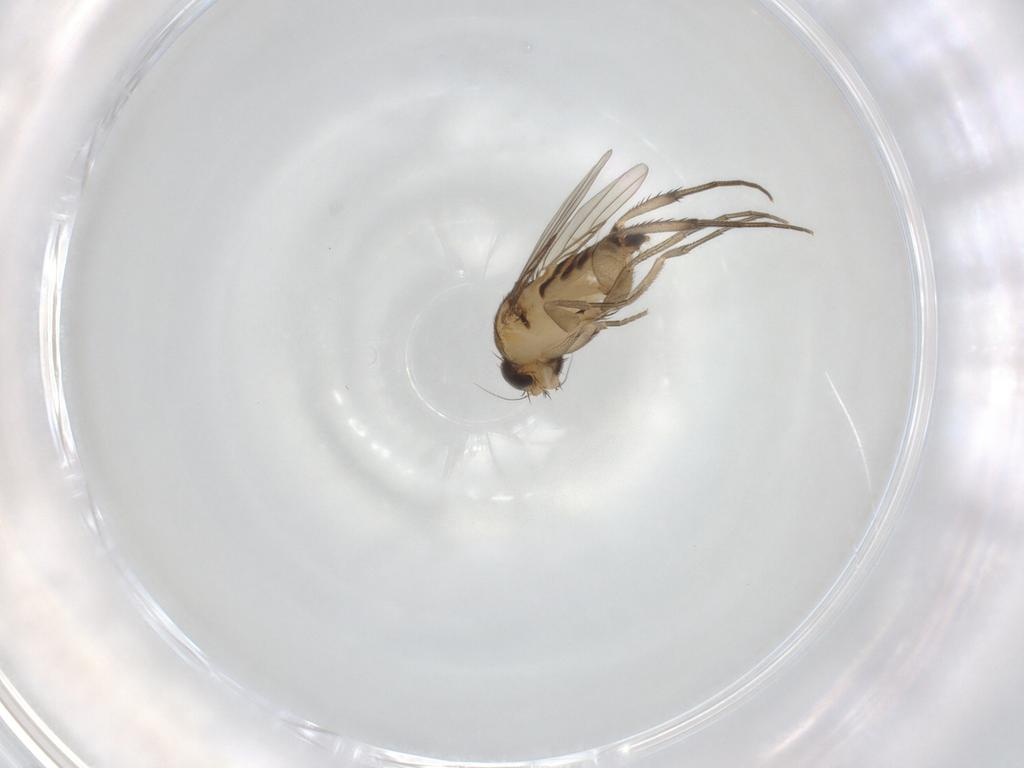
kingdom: Animalia
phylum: Arthropoda
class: Insecta
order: Diptera
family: Phoridae
